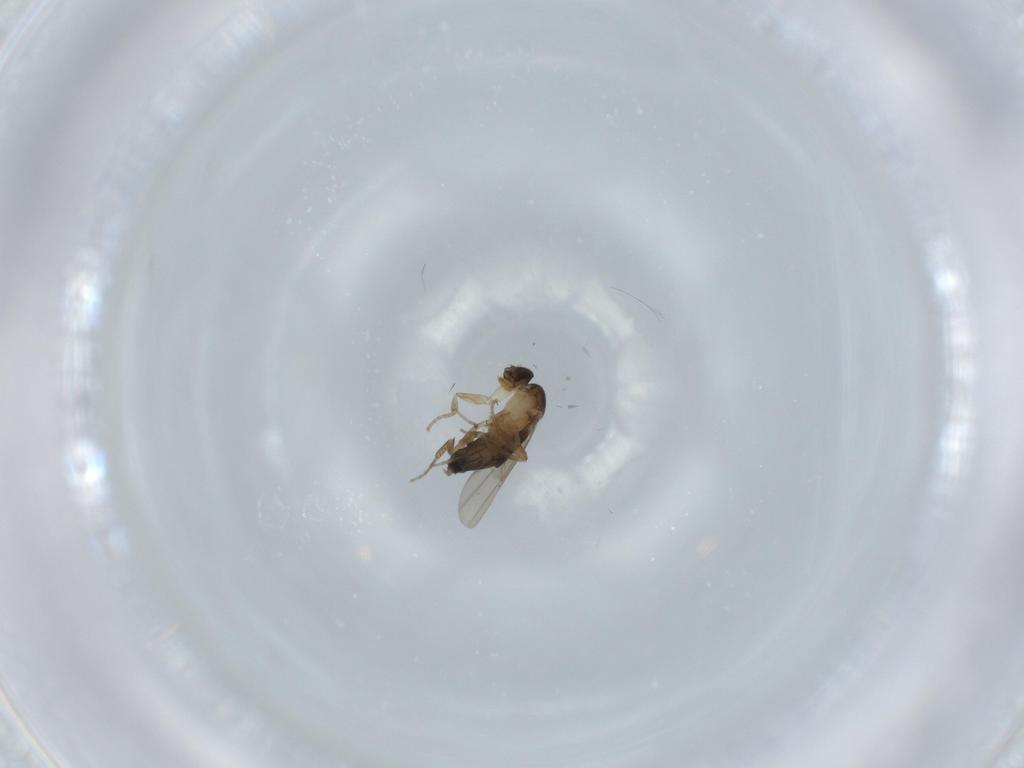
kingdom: Animalia
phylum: Arthropoda
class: Insecta
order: Diptera
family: Phoridae
